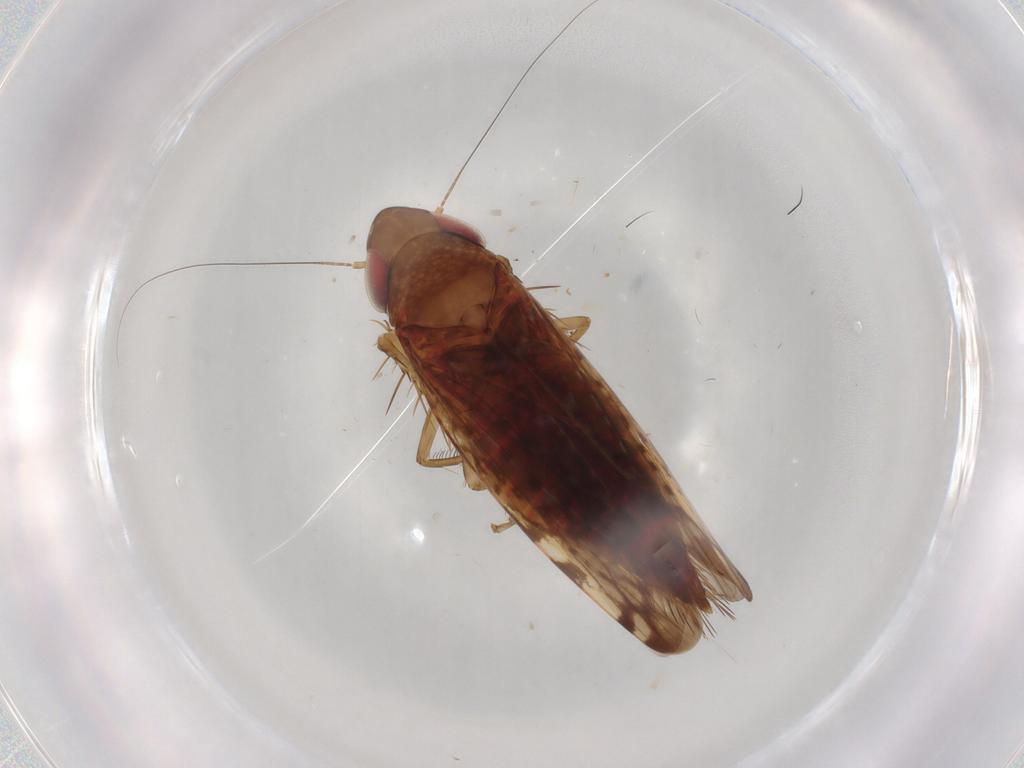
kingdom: Animalia
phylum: Arthropoda
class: Insecta
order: Hemiptera
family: Cicadellidae
